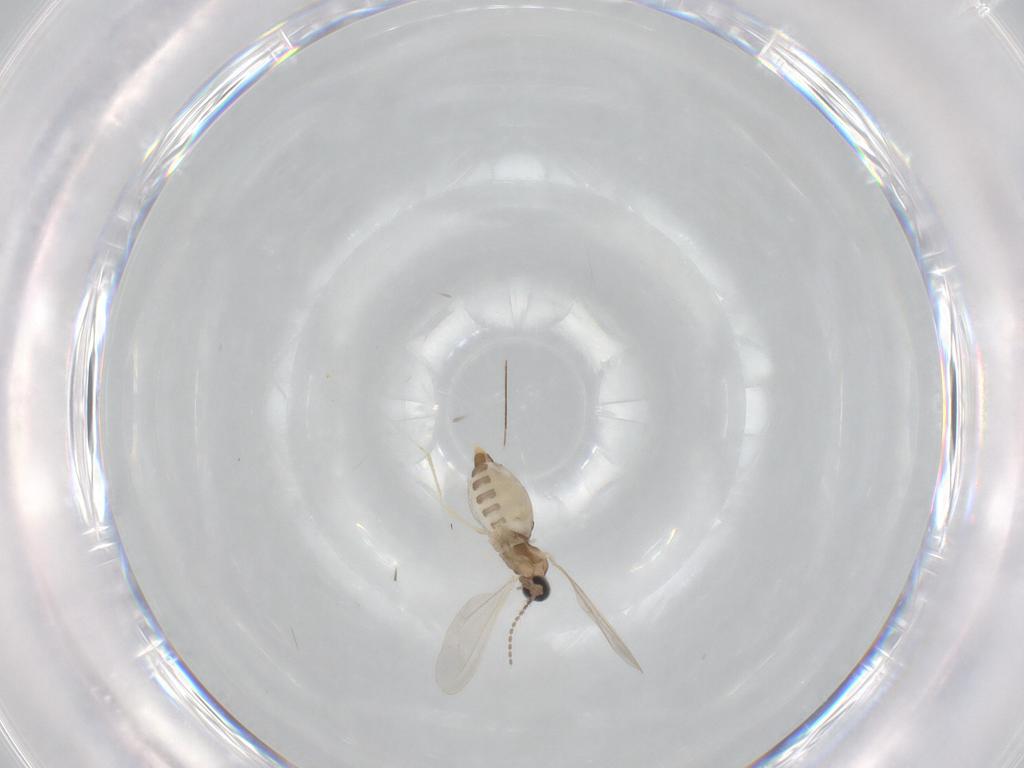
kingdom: Animalia
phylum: Arthropoda
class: Insecta
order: Diptera
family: Cecidomyiidae
